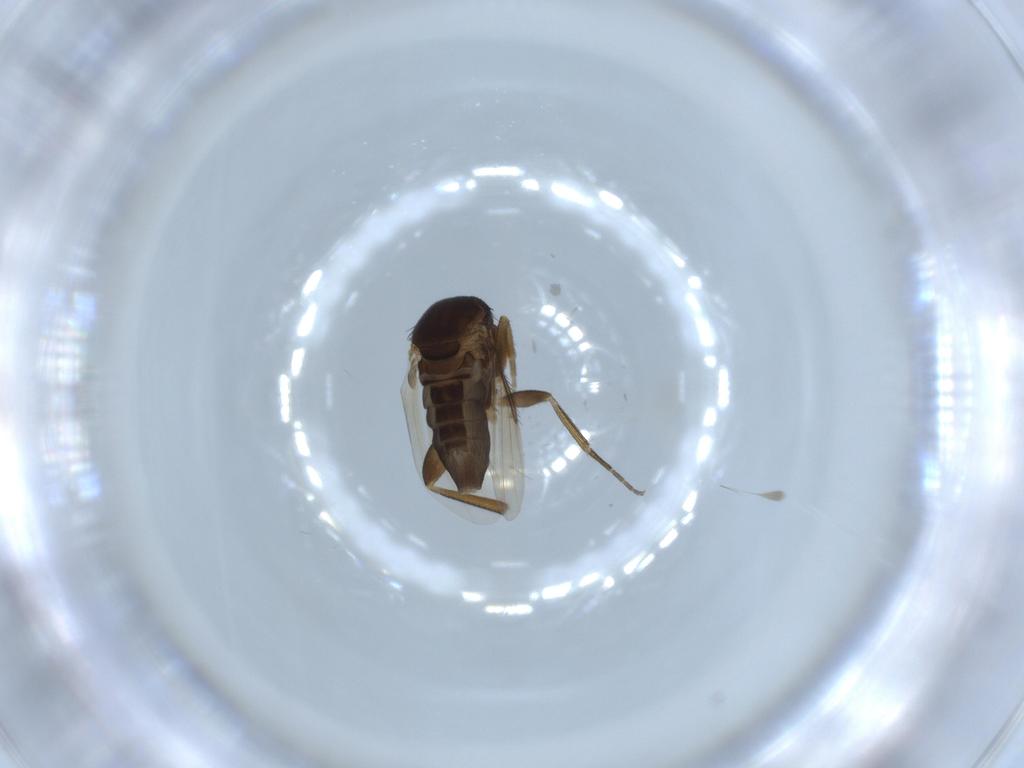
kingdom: Animalia
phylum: Arthropoda
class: Insecta
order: Diptera
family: Phoridae
